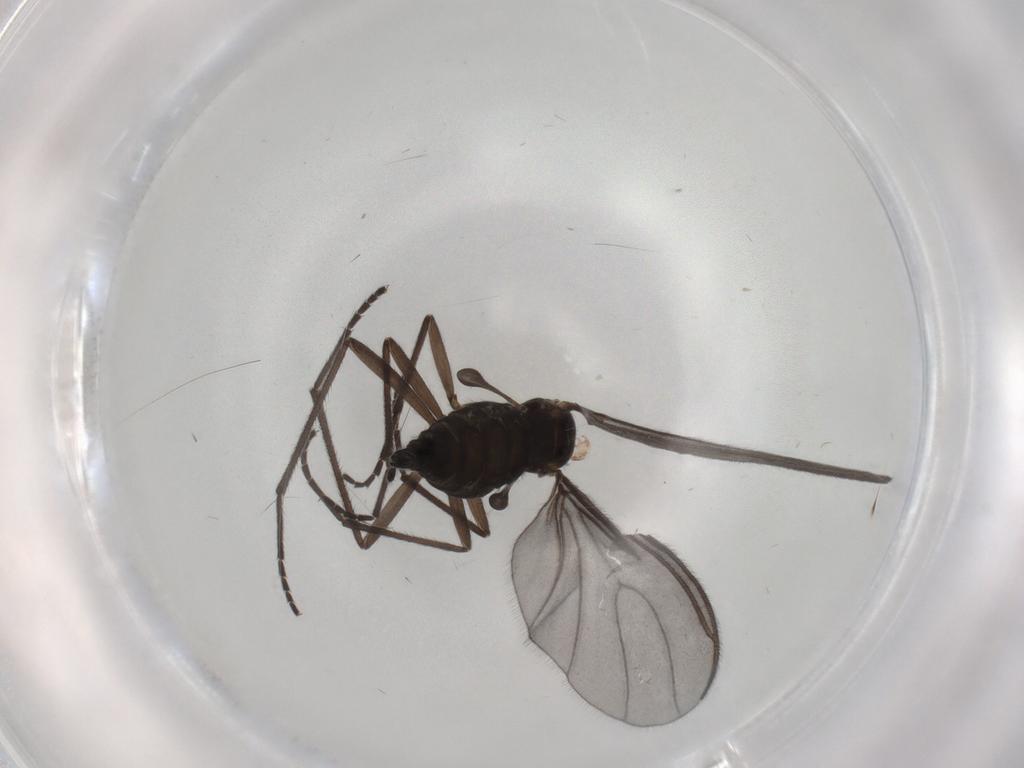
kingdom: Animalia
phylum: Arthropoda
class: Insecta
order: Diptera
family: Sciaridae
